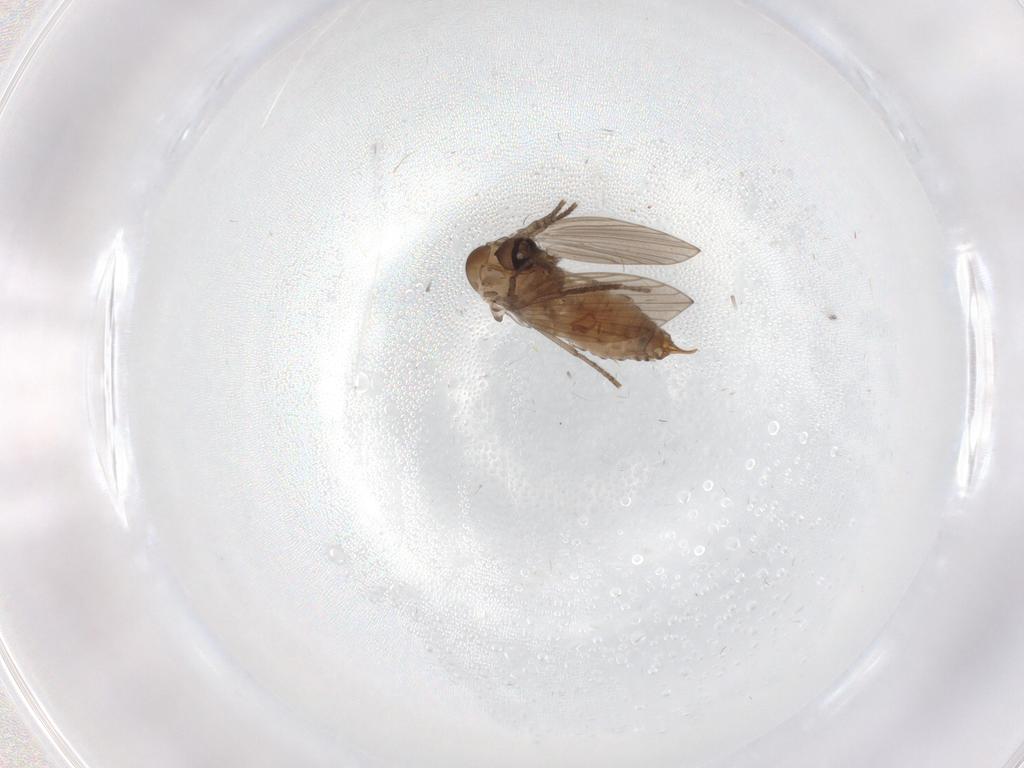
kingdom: Animalia
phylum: Arthropoda
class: Insecta
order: Diptera
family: Psychodidae
